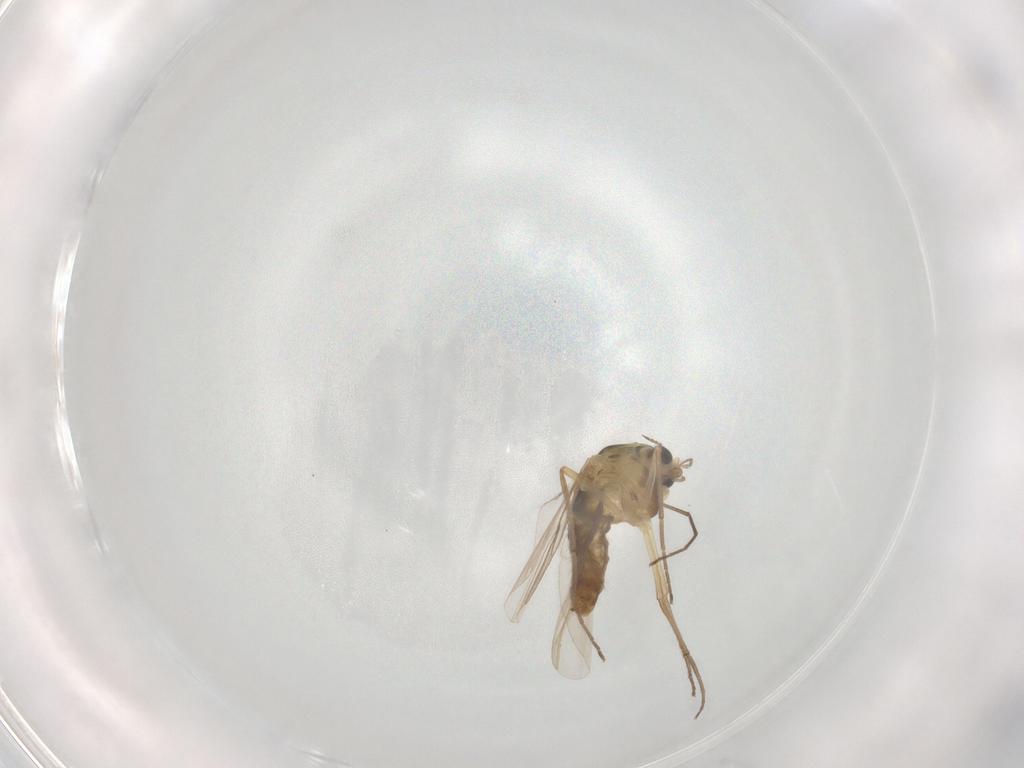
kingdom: Animalia
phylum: Arthropoda
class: Insecta
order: Diptera
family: Chironomidae
